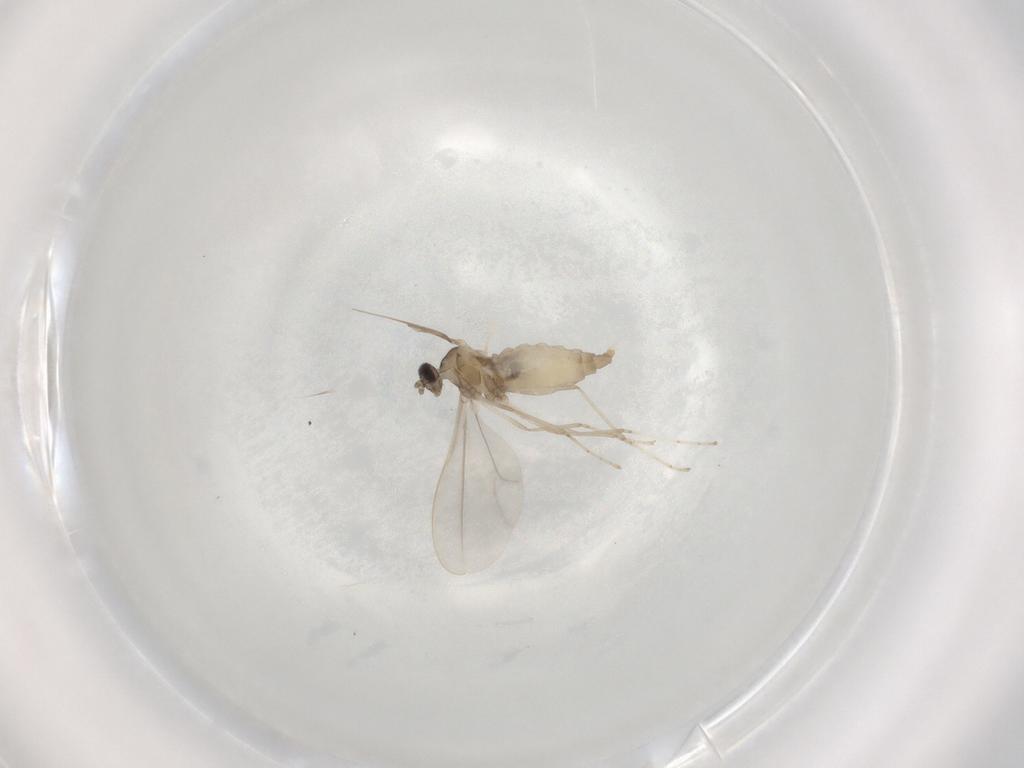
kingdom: Animalia
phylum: Arthropoda
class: Insecta
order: Diptera
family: Cecidomyiidae
